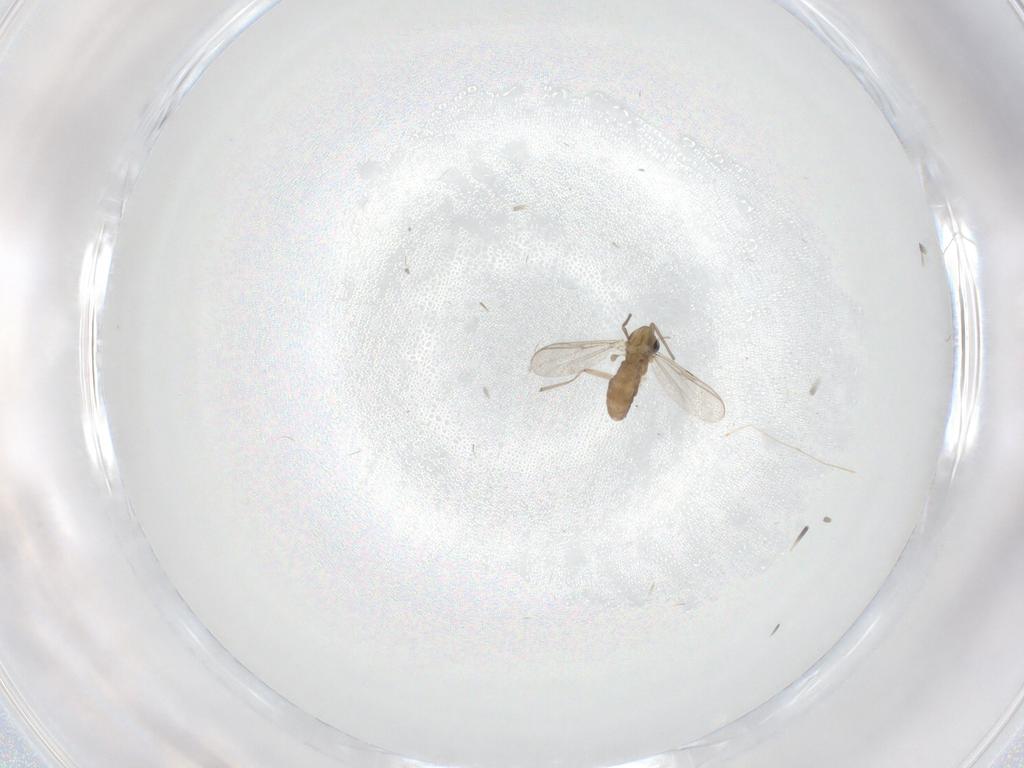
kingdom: Animalia
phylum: Arthropoda
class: Insecta
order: Diptera
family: Chironomidae
